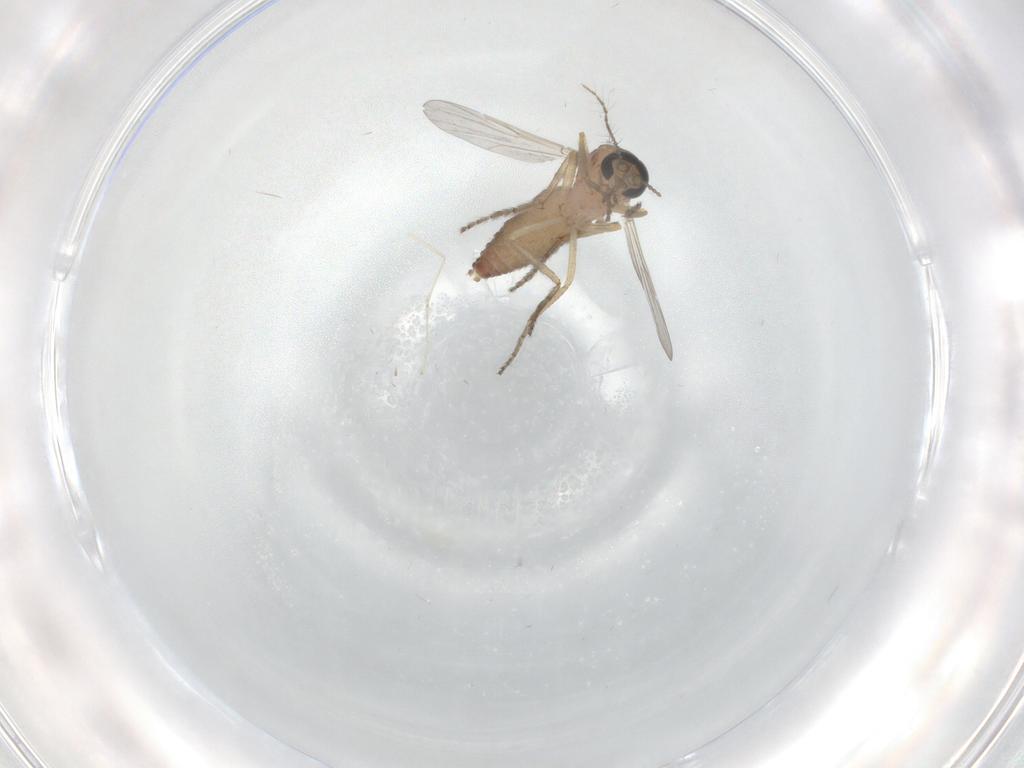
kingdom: Animalia
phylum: Arthropoda
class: Insecta
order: Diptera
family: Ceratopogonidae
